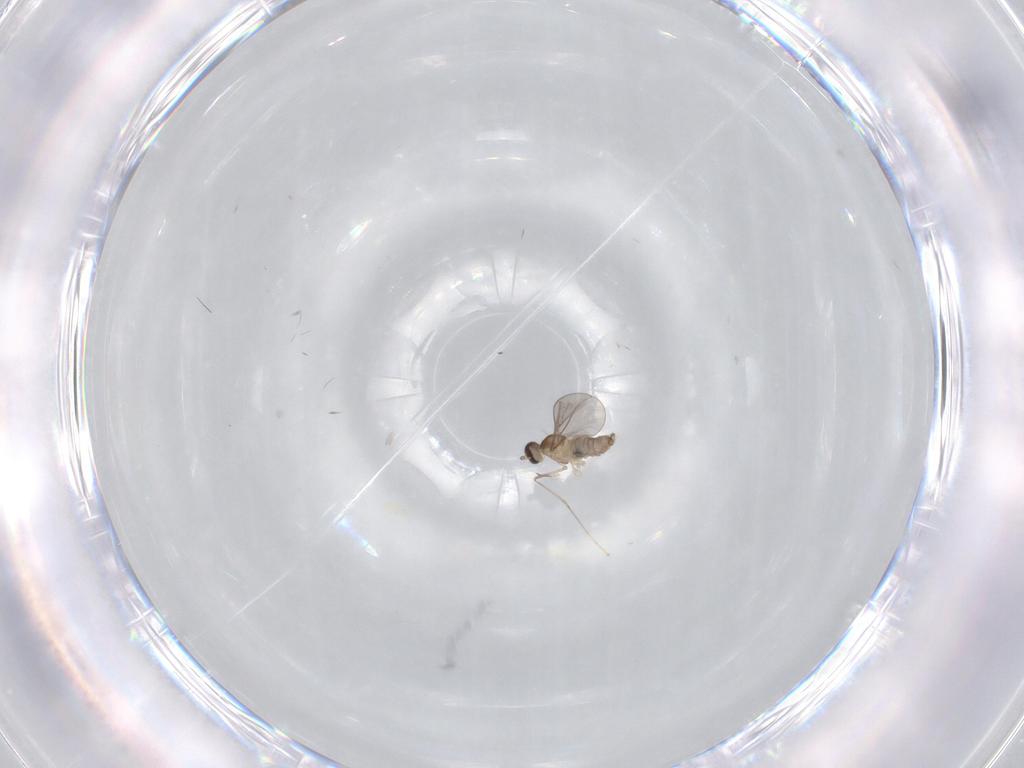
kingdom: Animalia
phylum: Arthropoda
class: Insecta
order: Diptera
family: Cecidomyiidae
